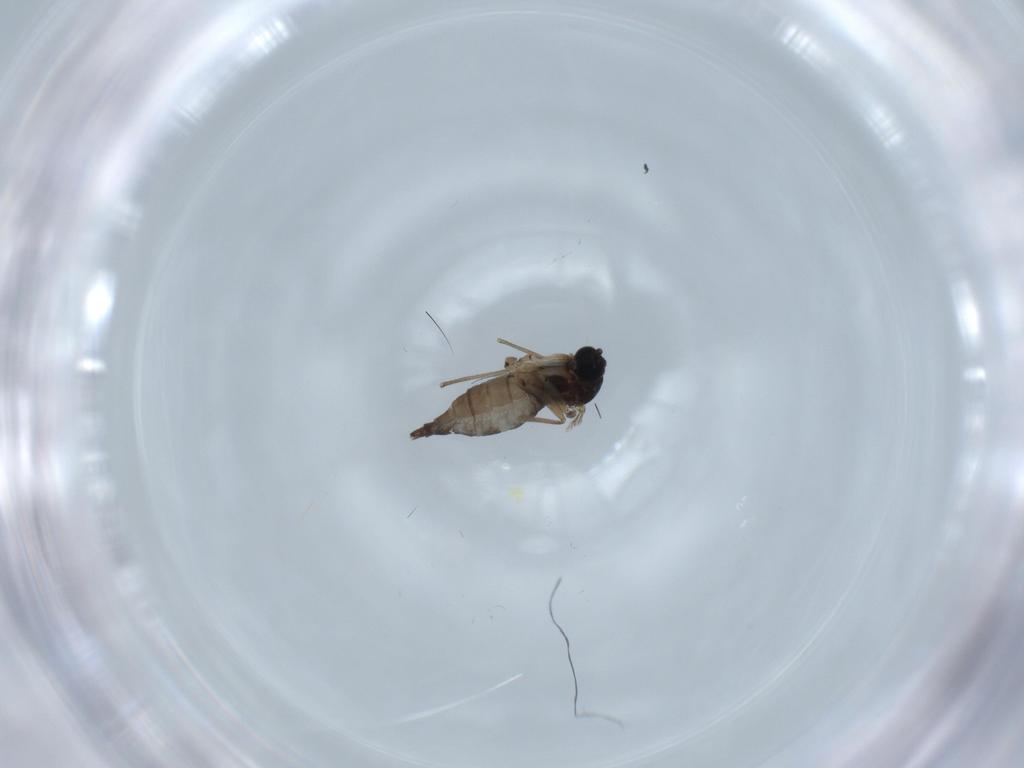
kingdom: Animalia
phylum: Arthropoda
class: Insecta
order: Diptera
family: Sciaridae
